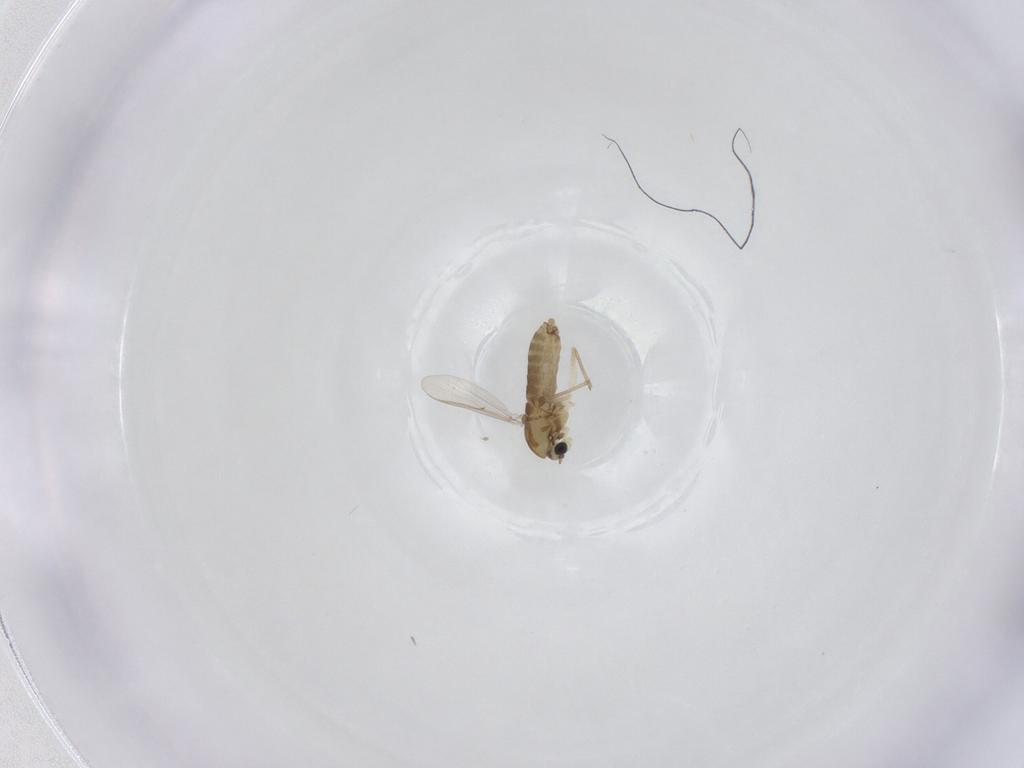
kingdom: Animalia
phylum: Arthropoda
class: Insecta
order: Diptera
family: Chironomidae
